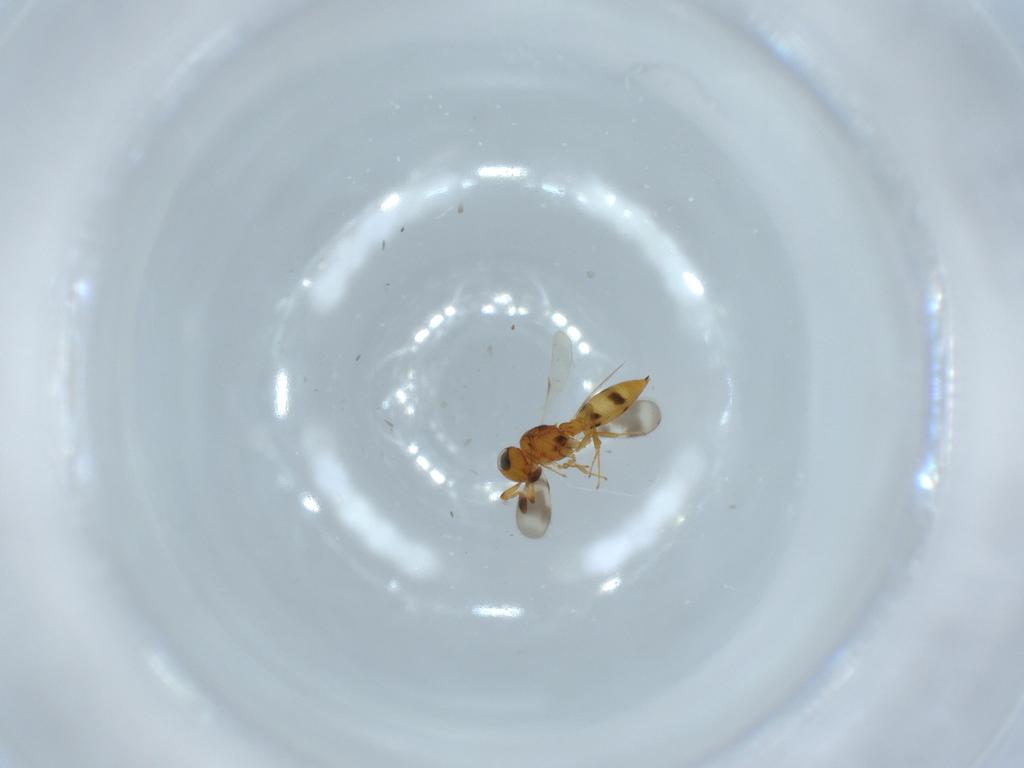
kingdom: Animalia
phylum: Arthropoda
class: Insecta
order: Hymenoptera
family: Scelionidae
